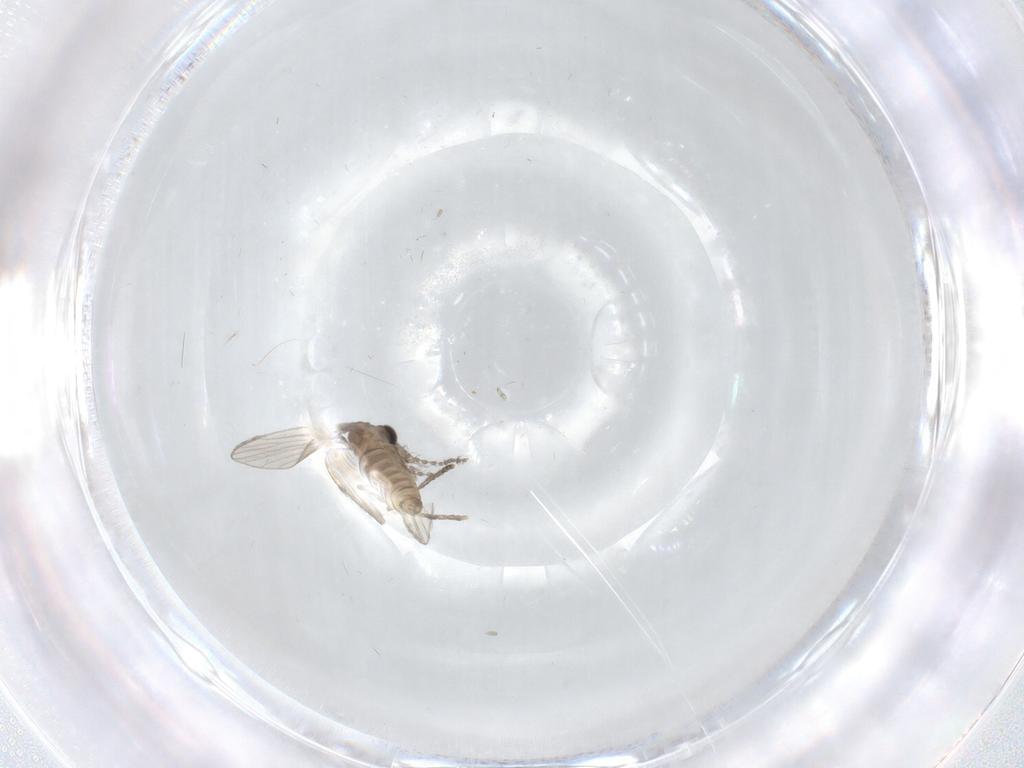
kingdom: Animalia
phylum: Arthropoda
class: Insecta
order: Diptera
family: Psychodidae
